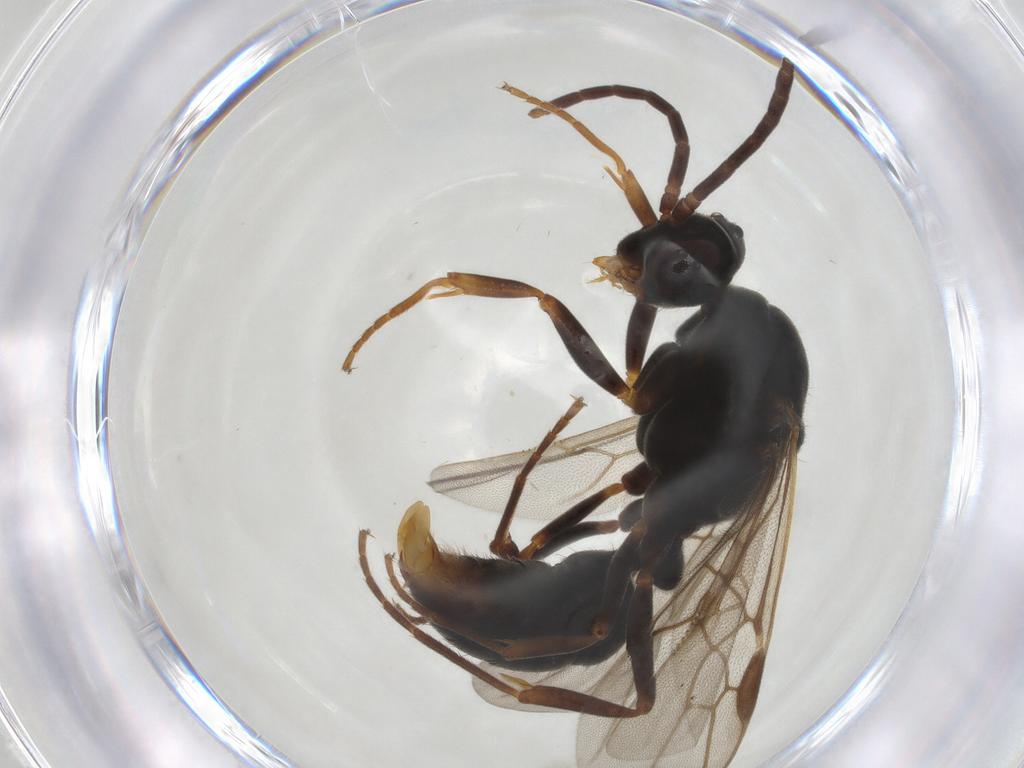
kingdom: Animalia
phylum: Arthropoda
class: Insecta
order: Hymenoptera
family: Formicidae
